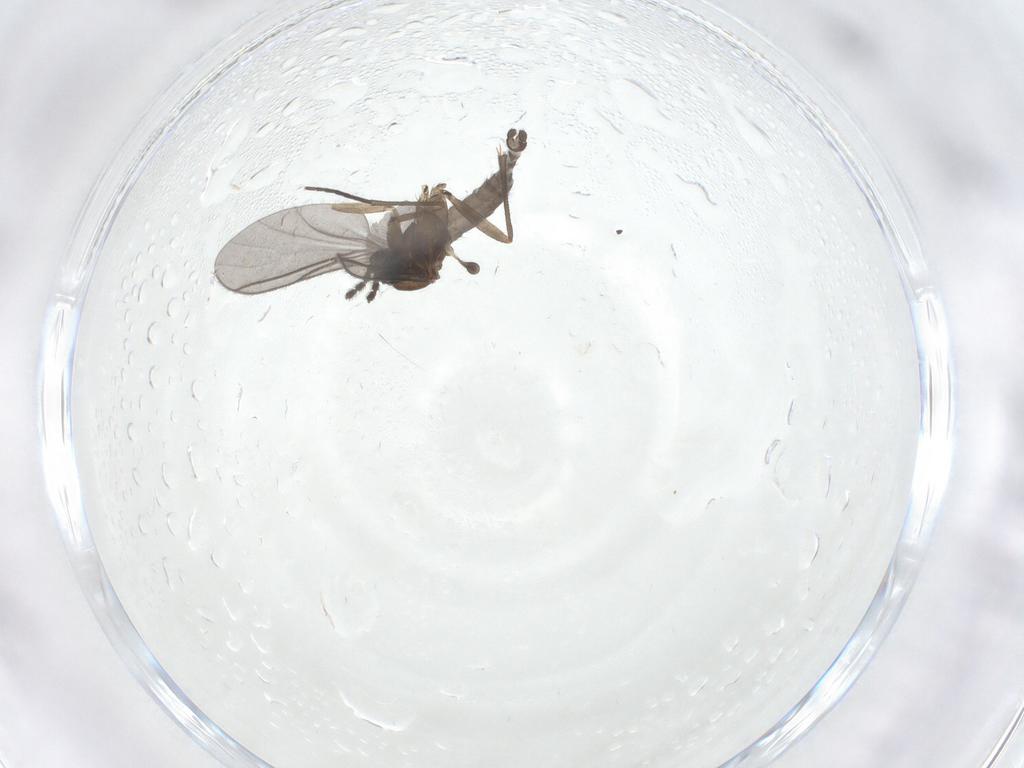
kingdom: Animalia
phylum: Arthropoda
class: Insecta
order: Diptera
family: Sciaridae
